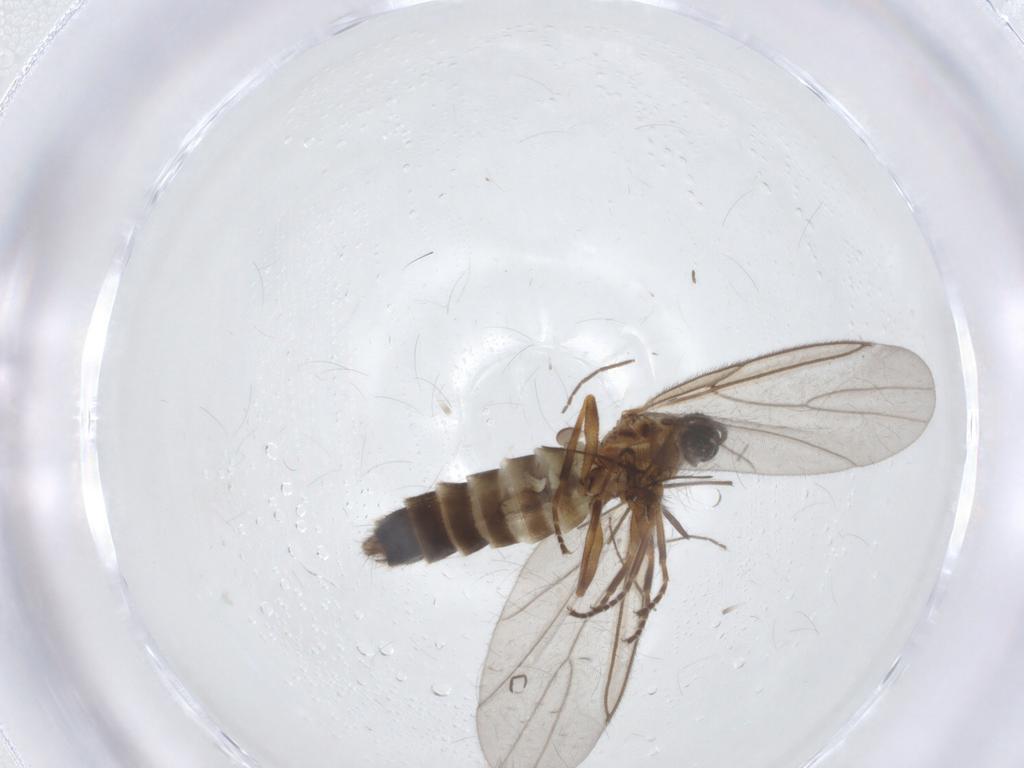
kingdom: Animalia
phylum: Arthropoda
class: Insecta
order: Diptera
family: Scatopsidae
